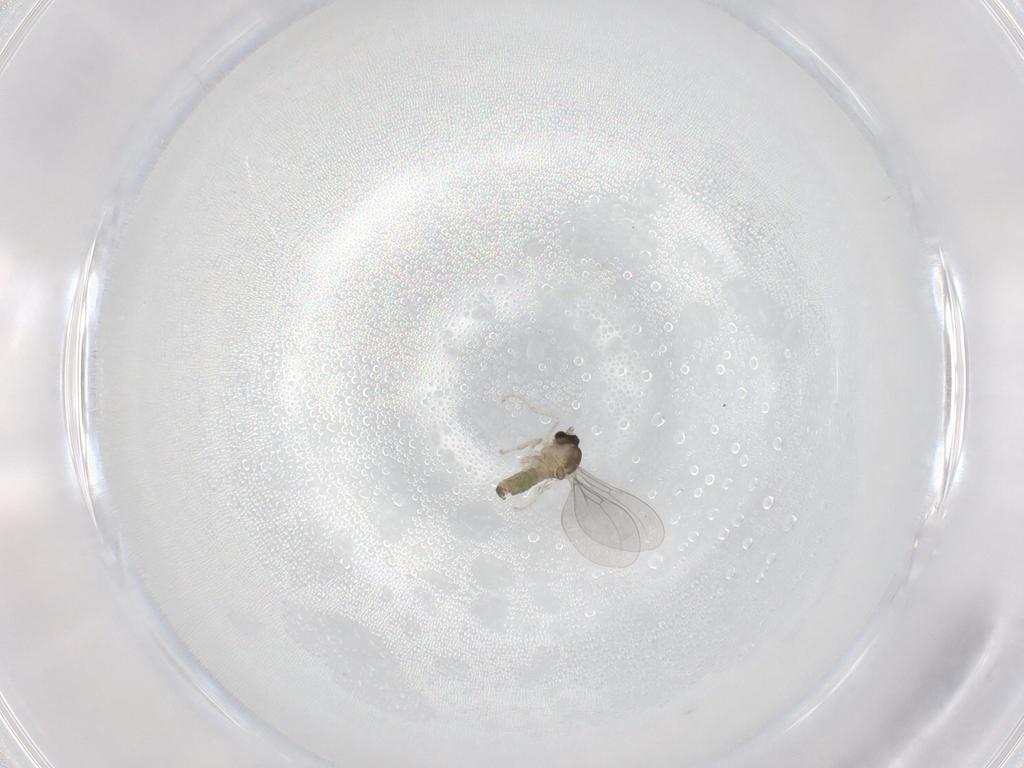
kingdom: Animalia
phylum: Arthropoda
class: Insecta
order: Diptera
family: Cecidomyiidae
